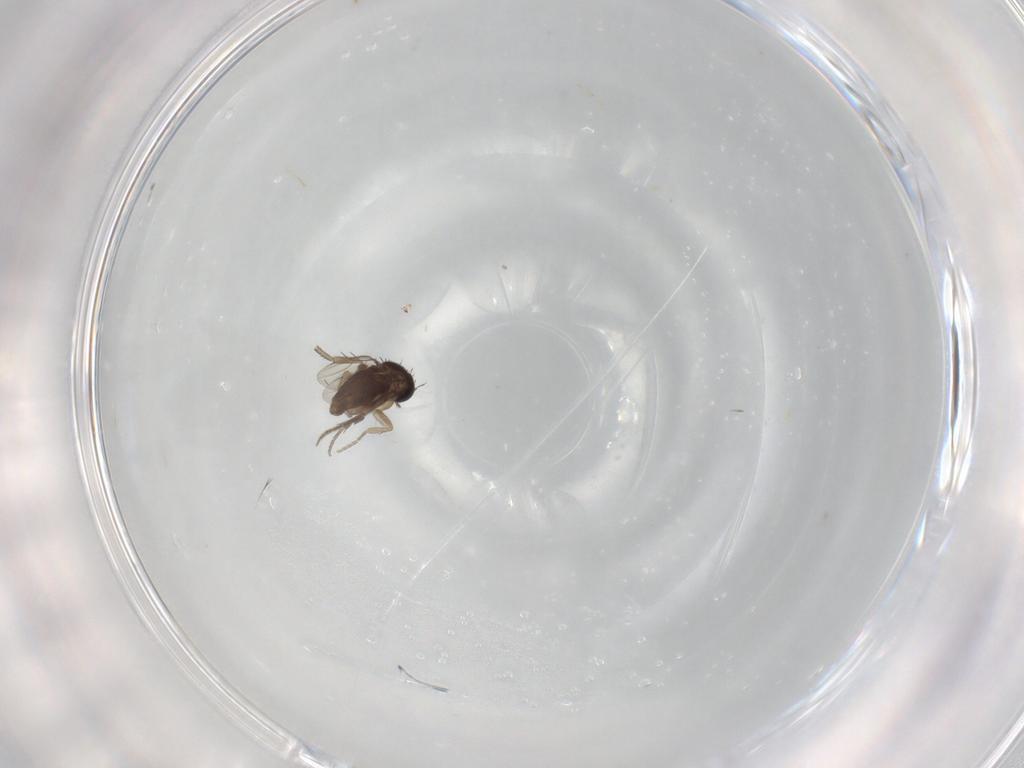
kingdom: Animalia
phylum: Arthropoda
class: Insecta
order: Diptera
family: Phoridae
